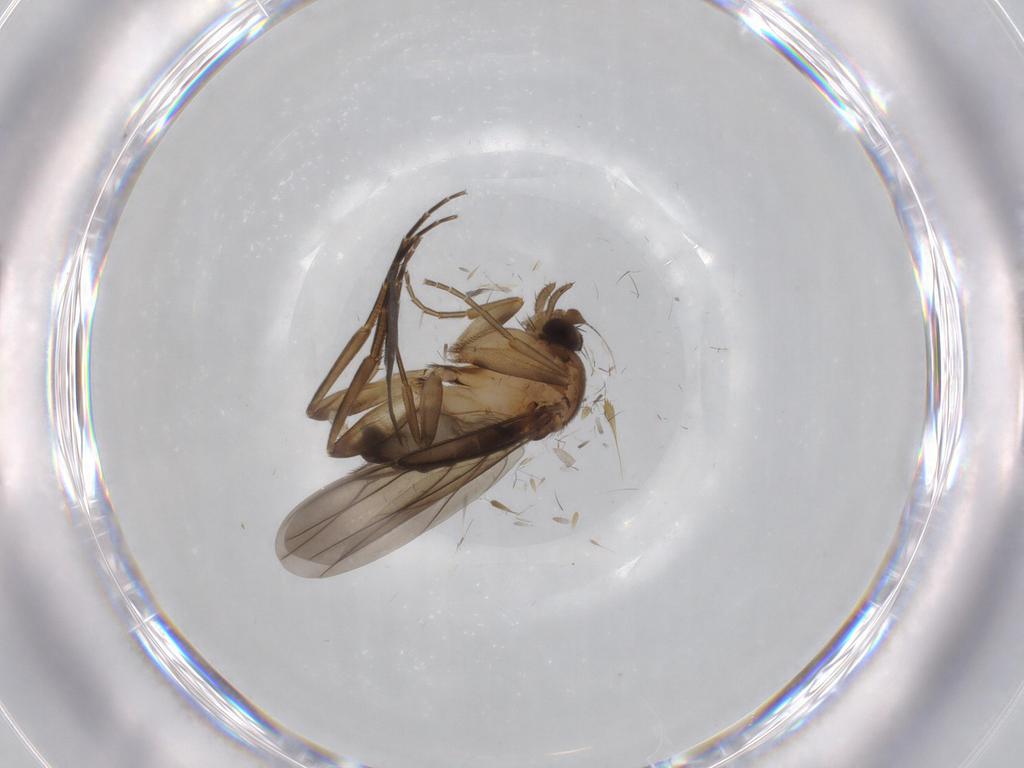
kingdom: Animalia
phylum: Arthropoda
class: Insecta
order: Diptera
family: Phoridae
